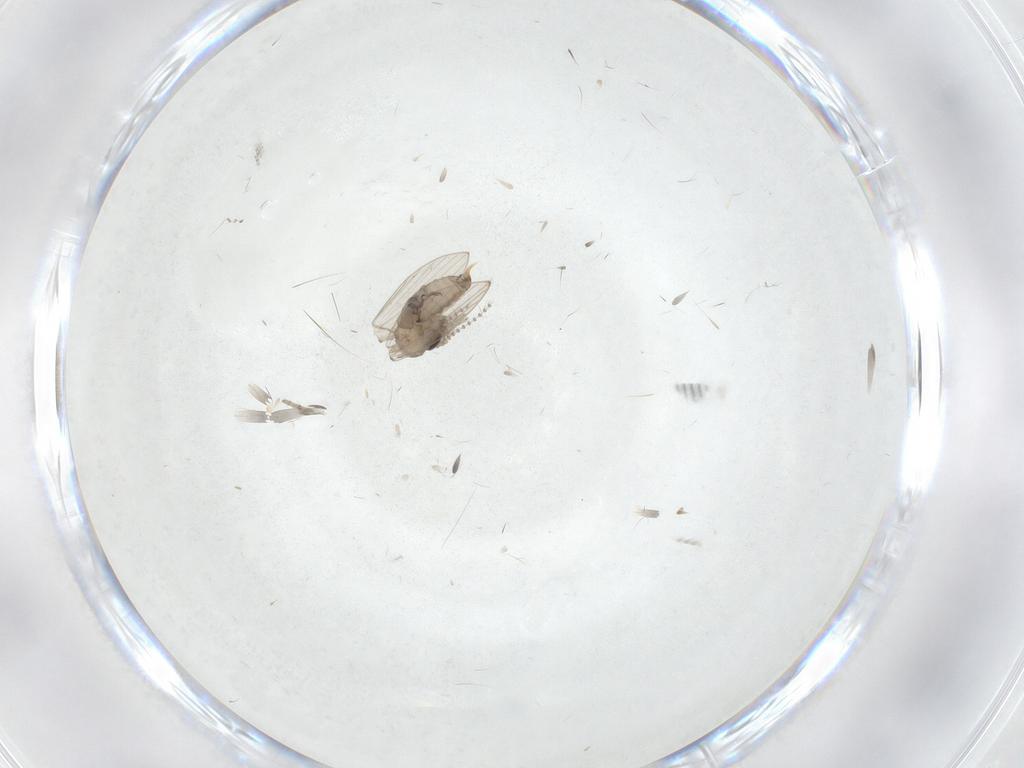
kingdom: Animalia
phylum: Arthropoda
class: Insecta
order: Diptera
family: Psychodidae
